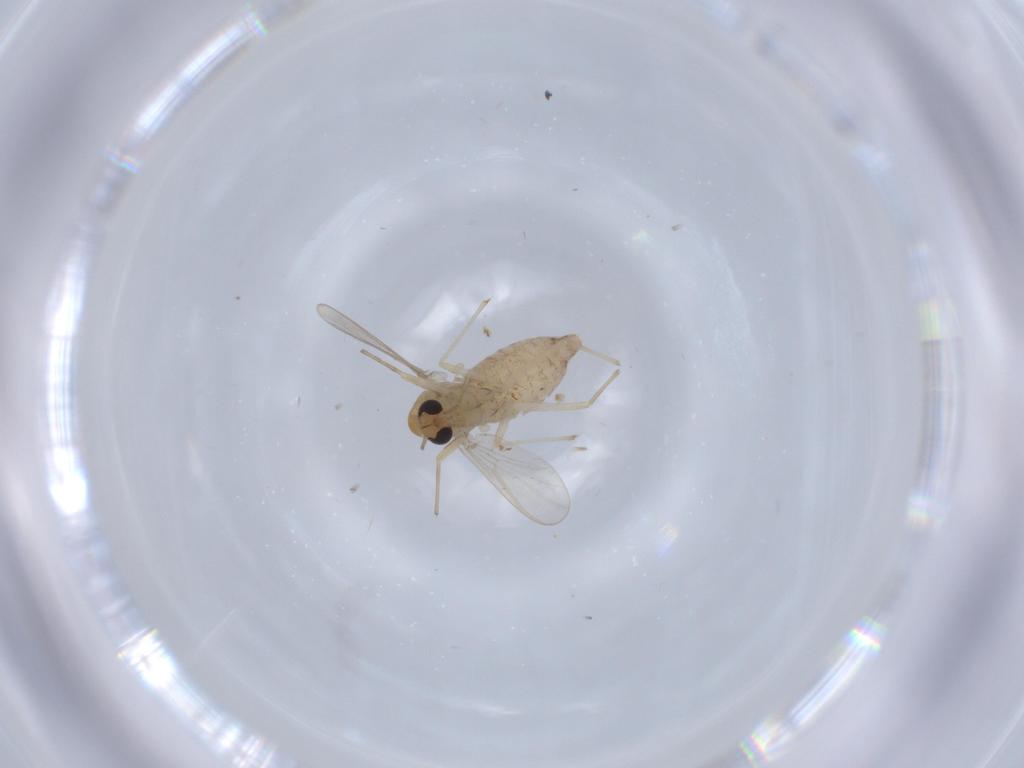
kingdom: Animalia
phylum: Arthropoda
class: Insecta
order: Diptera
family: Chironomidae
